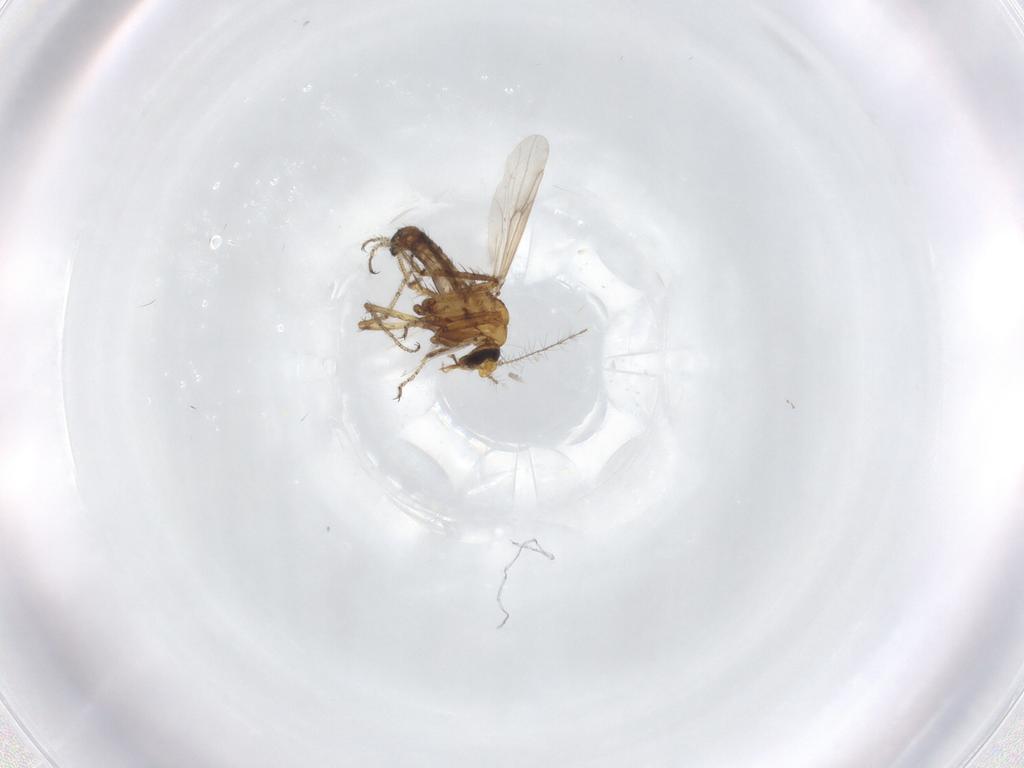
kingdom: Animalia
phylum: Arthropoda
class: Insecta
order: Diptera
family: Ceratopogonidae
